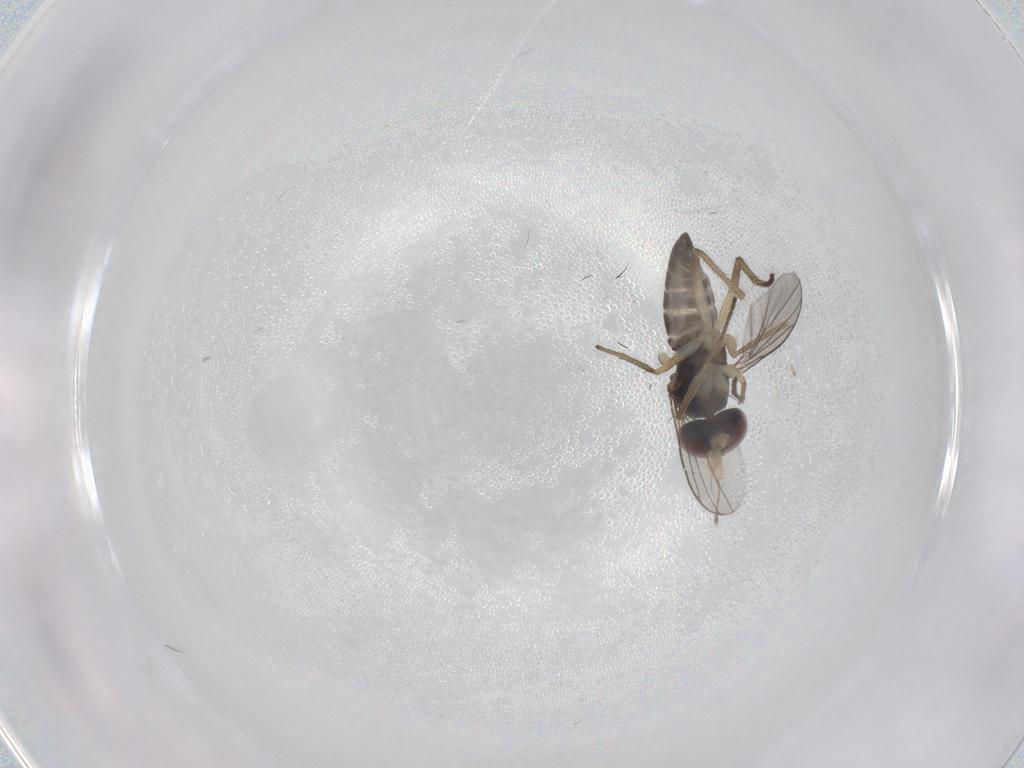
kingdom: Animalia
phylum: Arthropoda
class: Insecta
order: Diptera
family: Dolichopodidae
